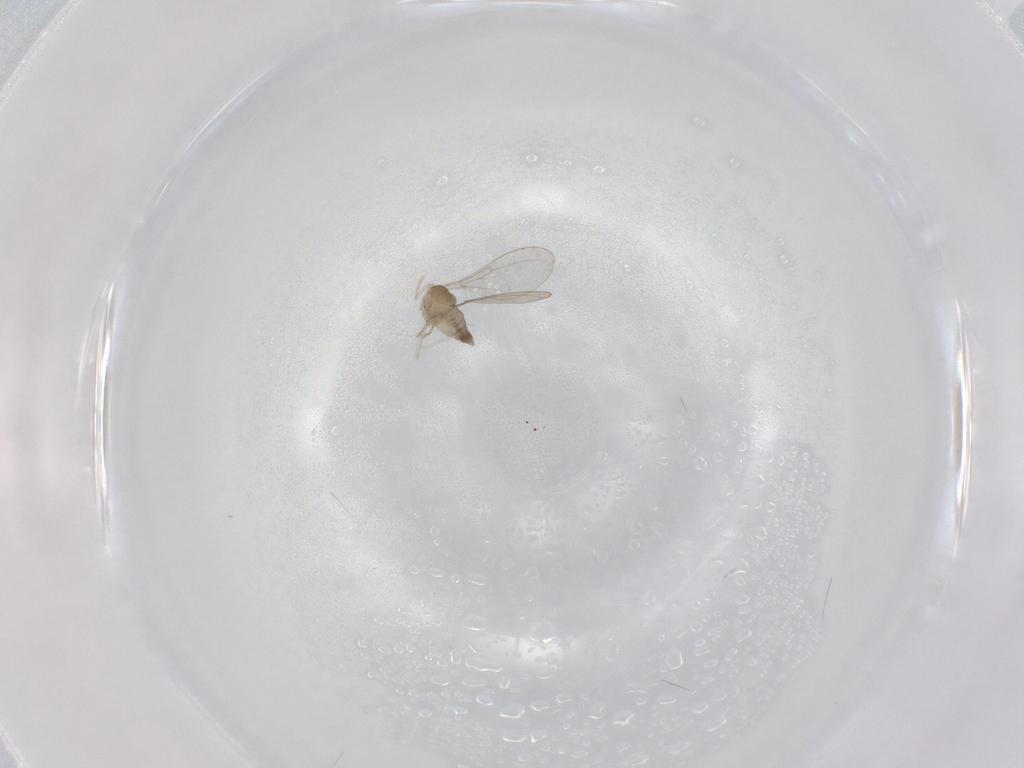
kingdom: Animalia
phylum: Arthropoda
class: Insecta
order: Diptera
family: Cecidomyiidae
